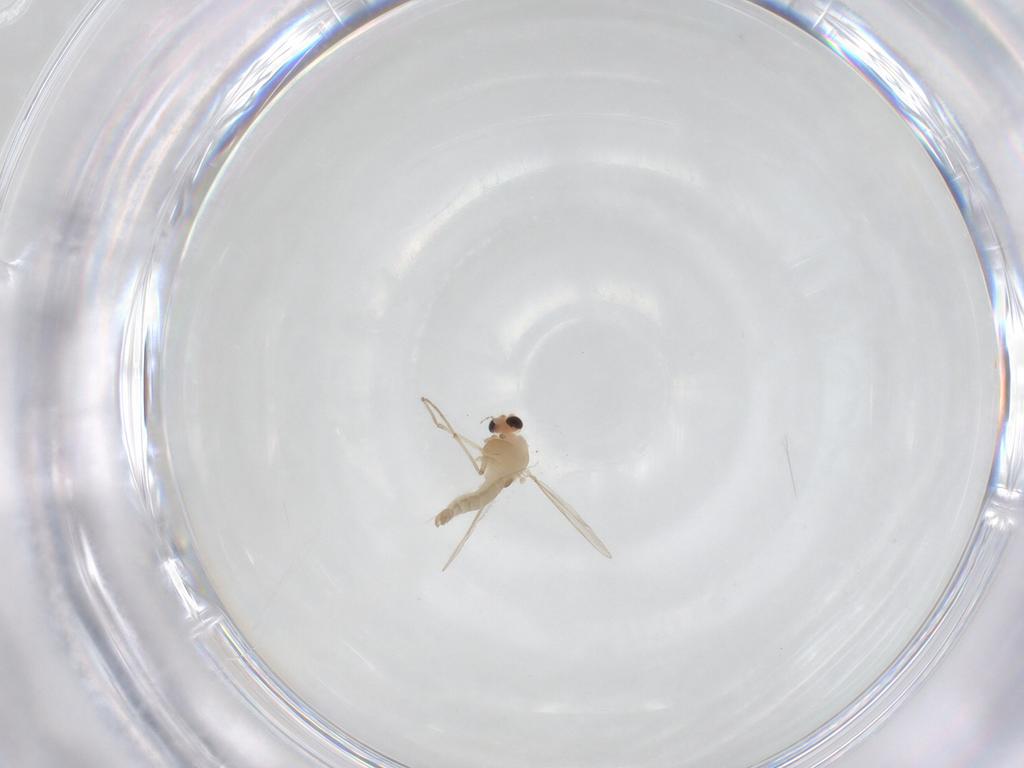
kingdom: Animalia
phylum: Arthropoda
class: Insecta
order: Diptera
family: Chironomidae
